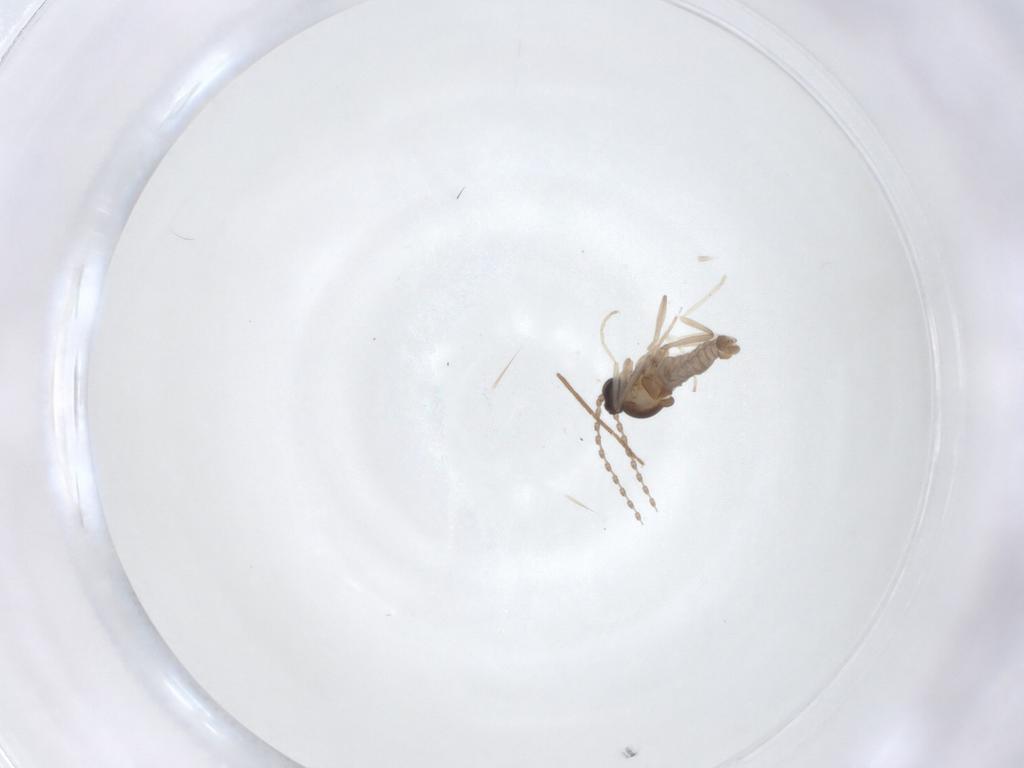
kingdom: Animalia
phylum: Arthropoda
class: Insecta
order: Diptera
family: Cecidomyiidae
